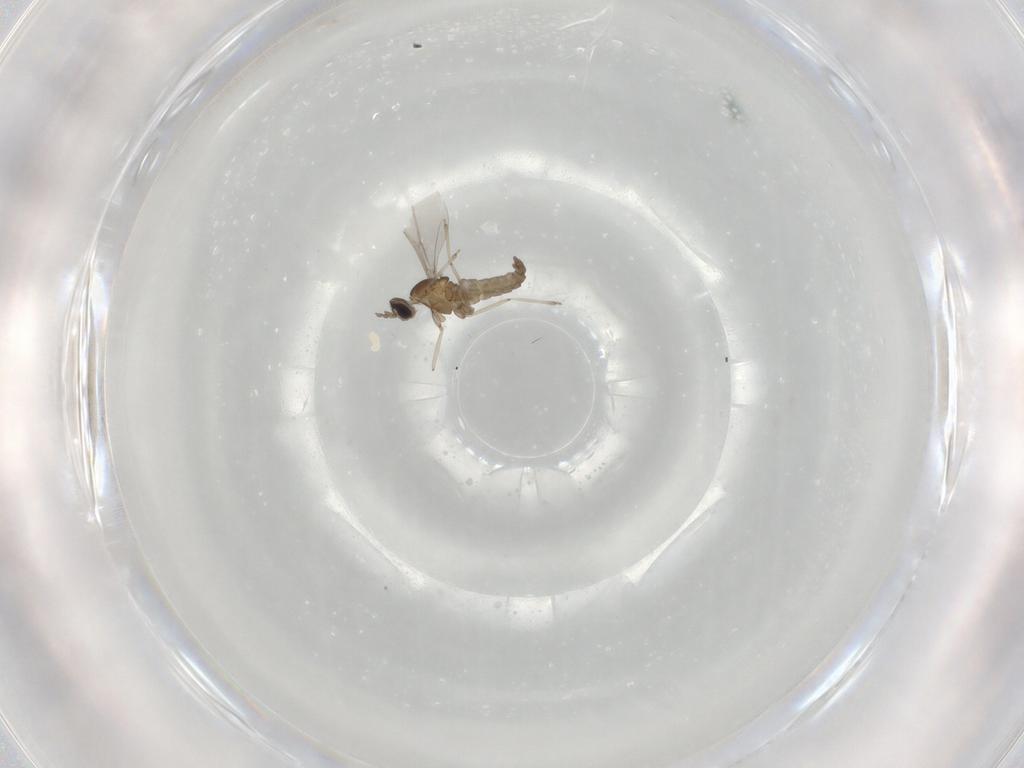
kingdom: Animalia
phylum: Arthropoda
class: Insecta
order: Diptera
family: Cecidomyiidae
